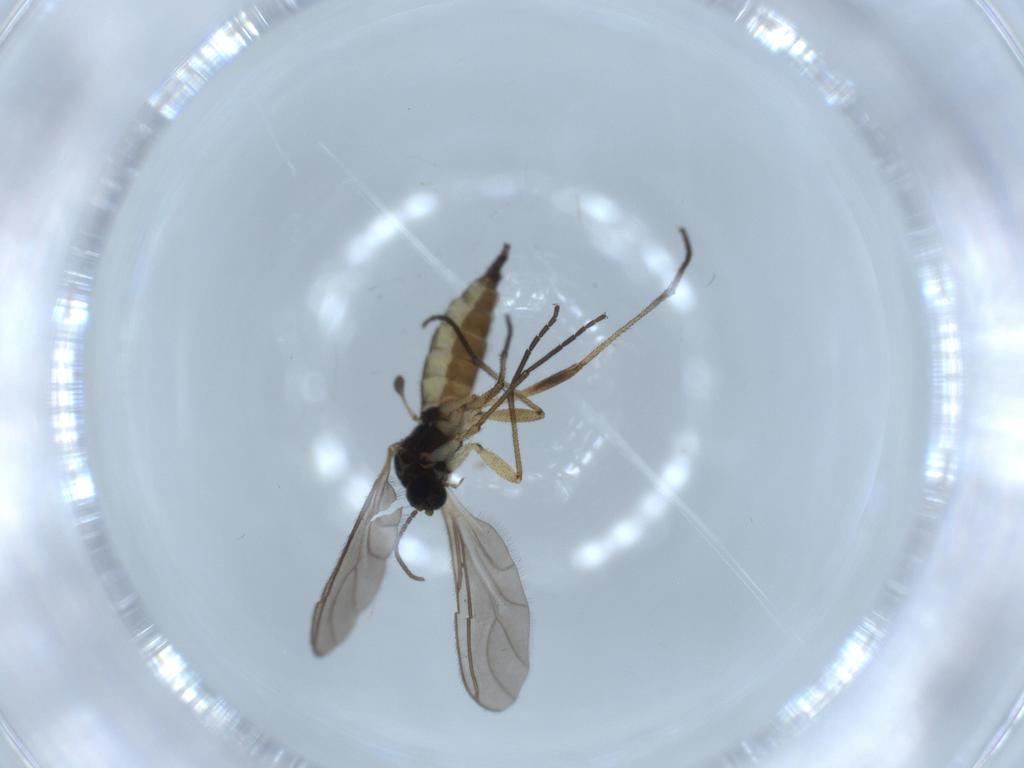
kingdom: Animalia
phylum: Arthropoda
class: Insecta
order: Diptera
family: Sciaridae
